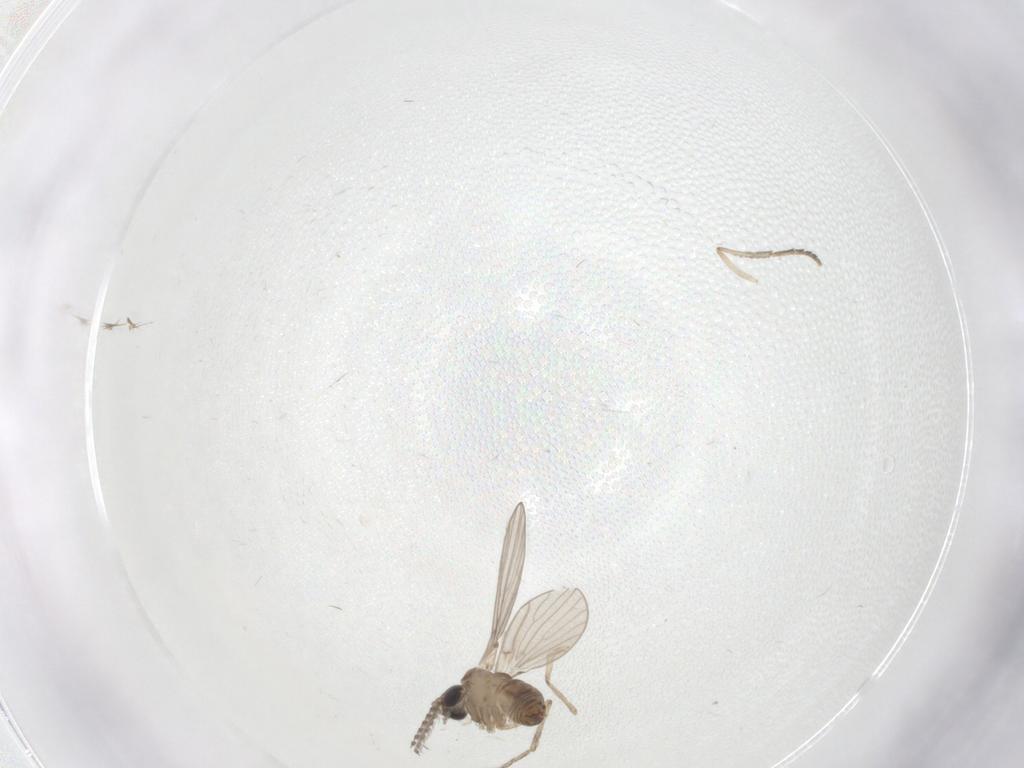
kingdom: Animalia
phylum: Arthropoda
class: Insecta
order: Diptera
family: Psychodidae
